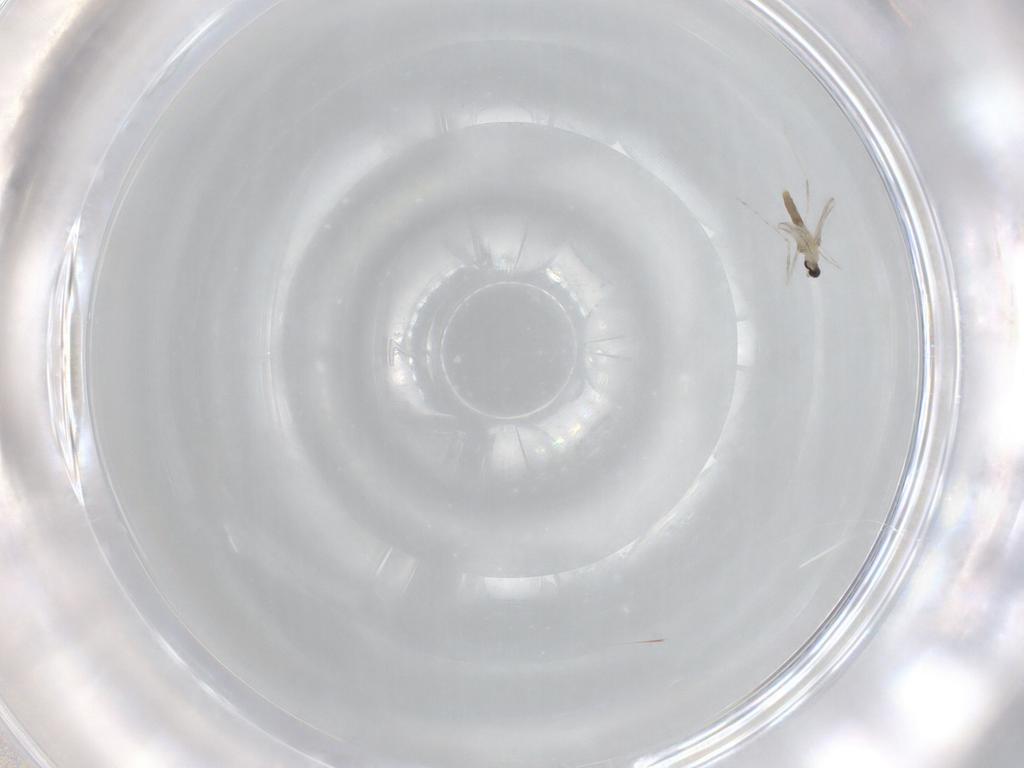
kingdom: Animalia
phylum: Arthropoda
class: Insecta
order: Diptera
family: Cecidomyiidae
